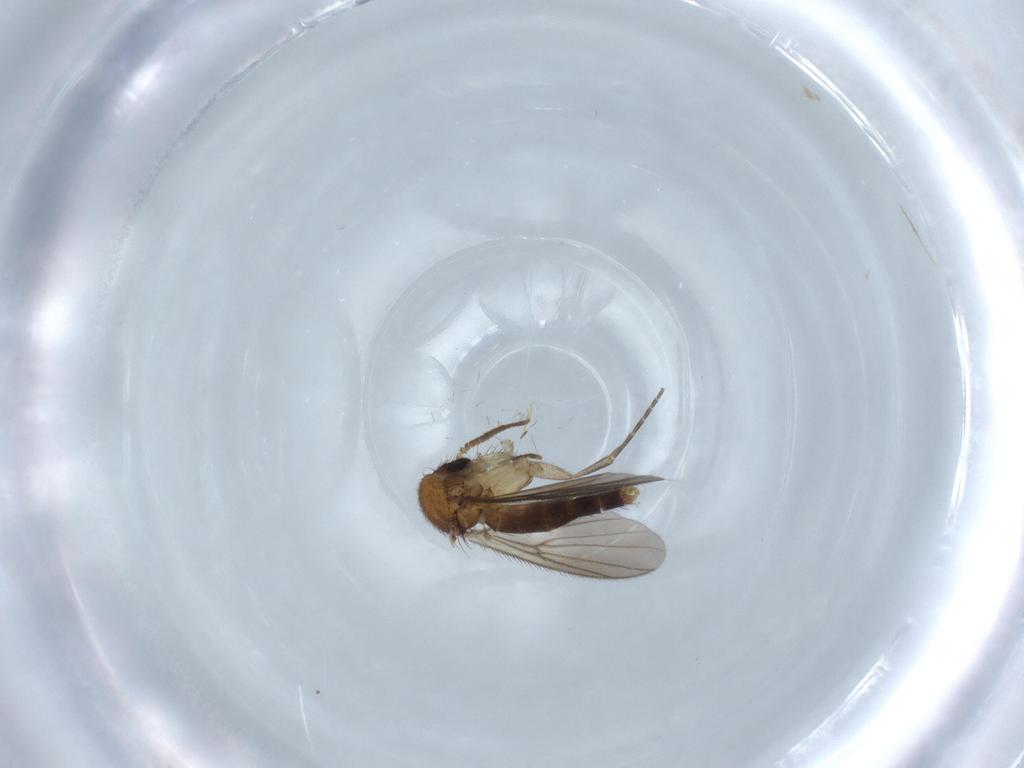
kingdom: Animalia
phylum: Arthropoda
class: Insecta
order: Diptera
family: Mycetophilidae
